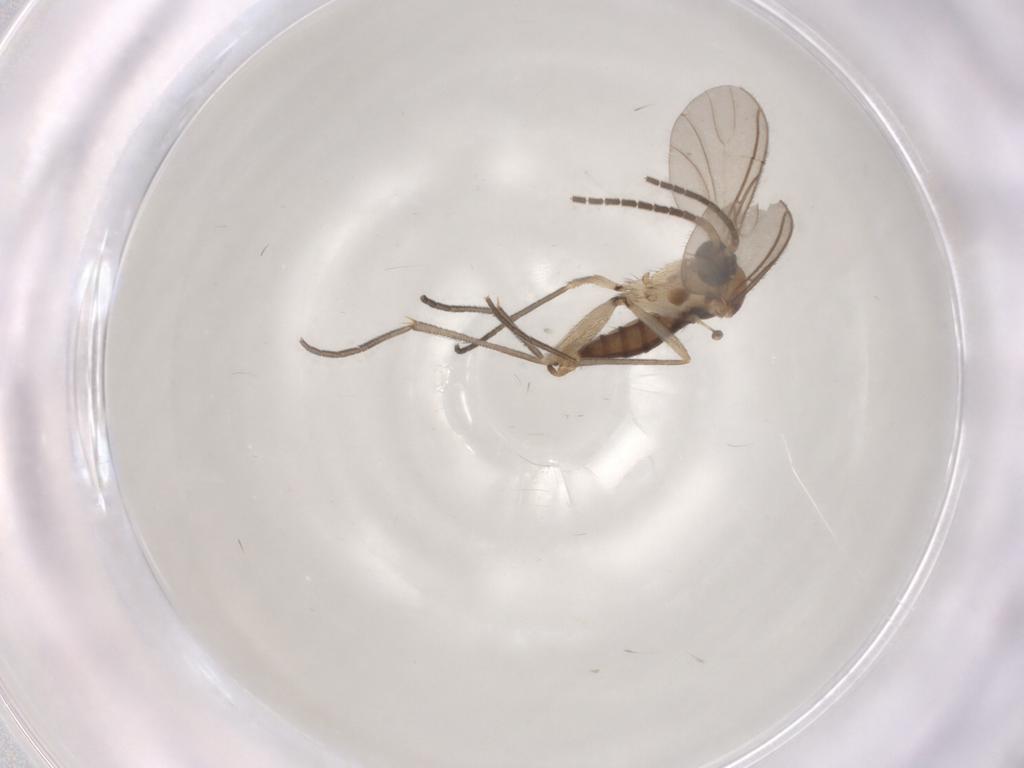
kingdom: Animalia
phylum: Arthropoda
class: Insecta
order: Diptera
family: Sciaridae
